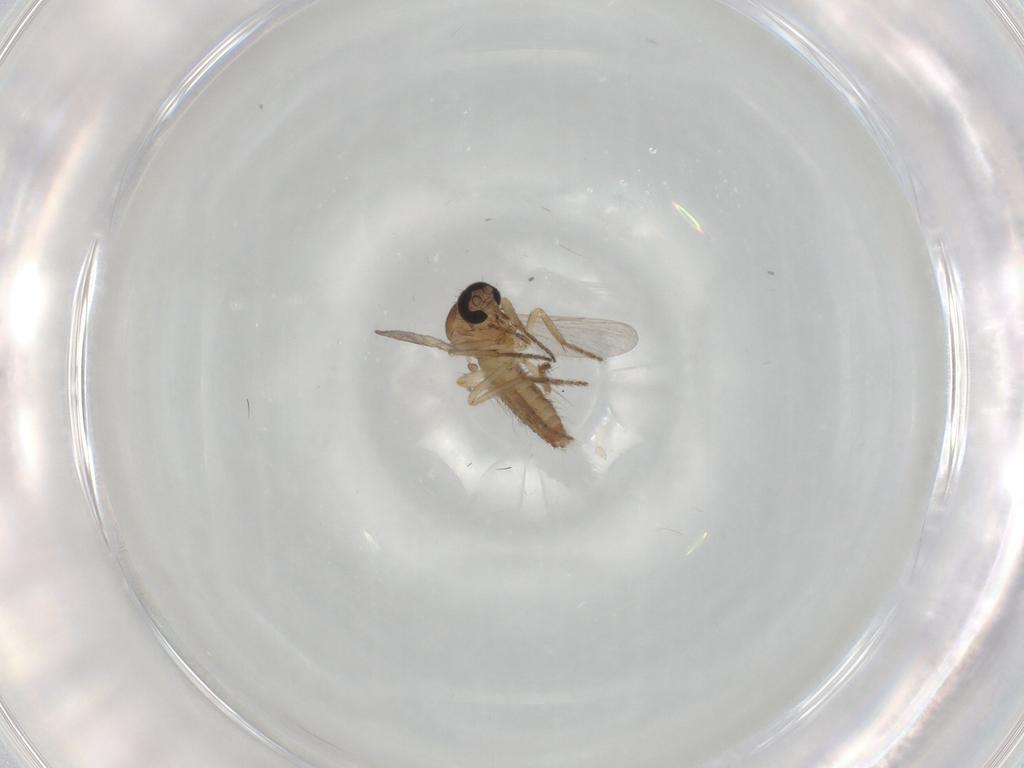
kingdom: Animalia
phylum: Arthropoda
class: Insecta
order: Diptera
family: Ceratopogonidae
